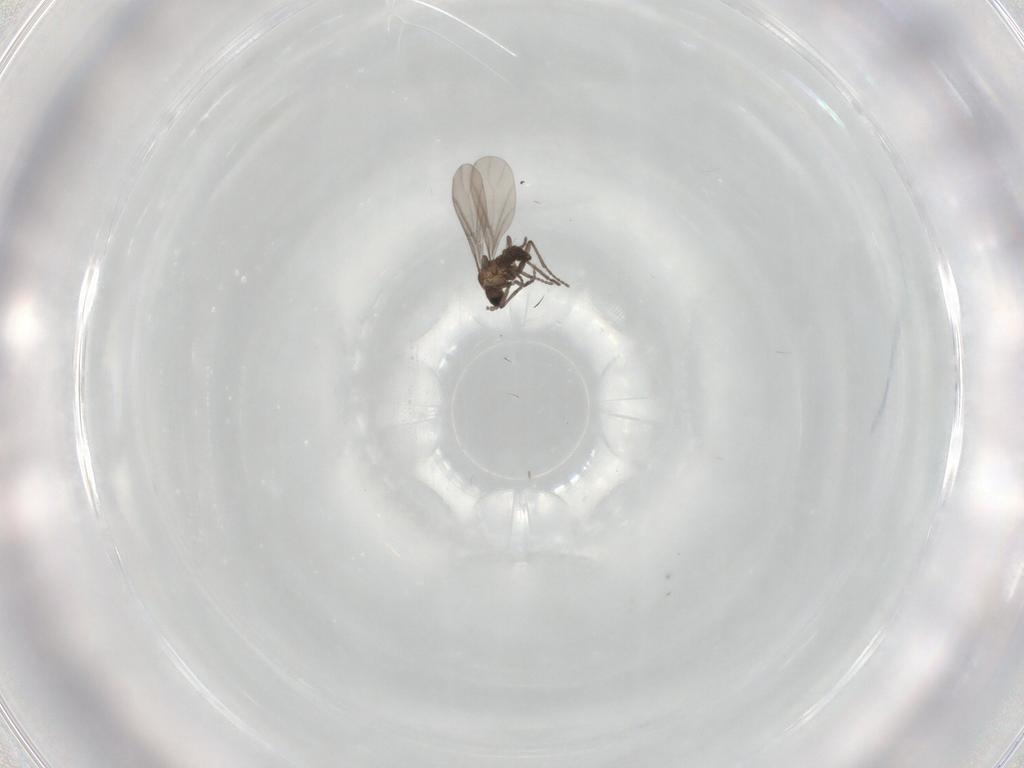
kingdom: Animalia
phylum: Arthropoda
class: Insecta
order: Diptera
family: Ceratopogonidae
